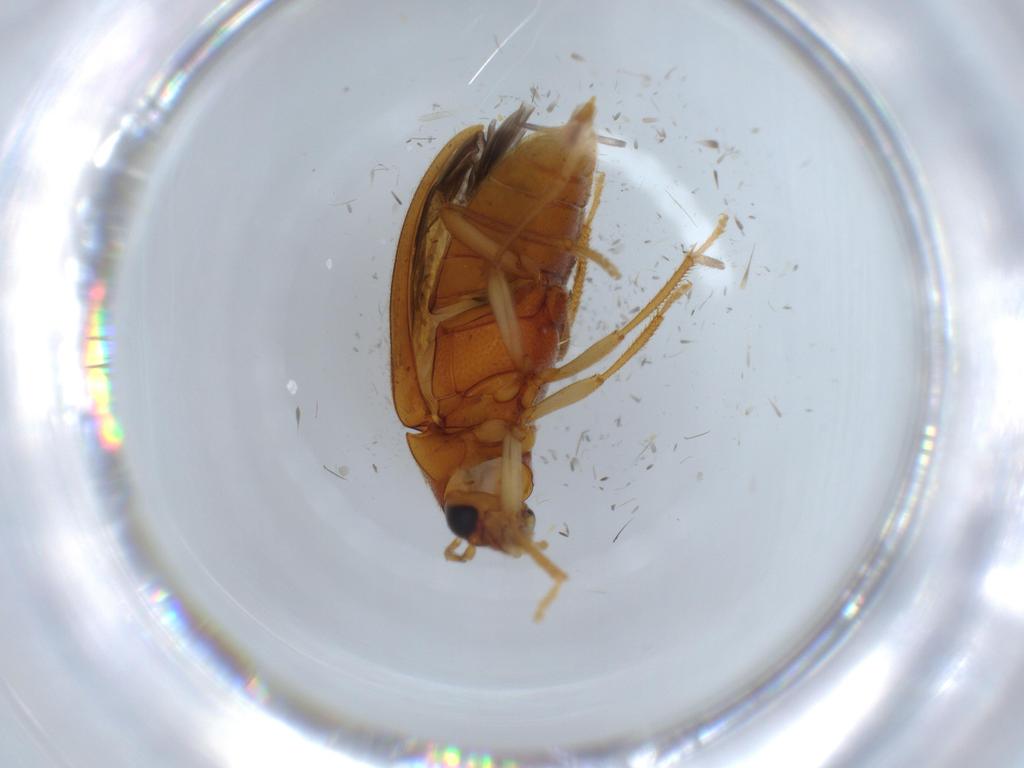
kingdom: Animalia
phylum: Arthropoda
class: Insecta
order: Coleoptera
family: Ptilodactylidae
